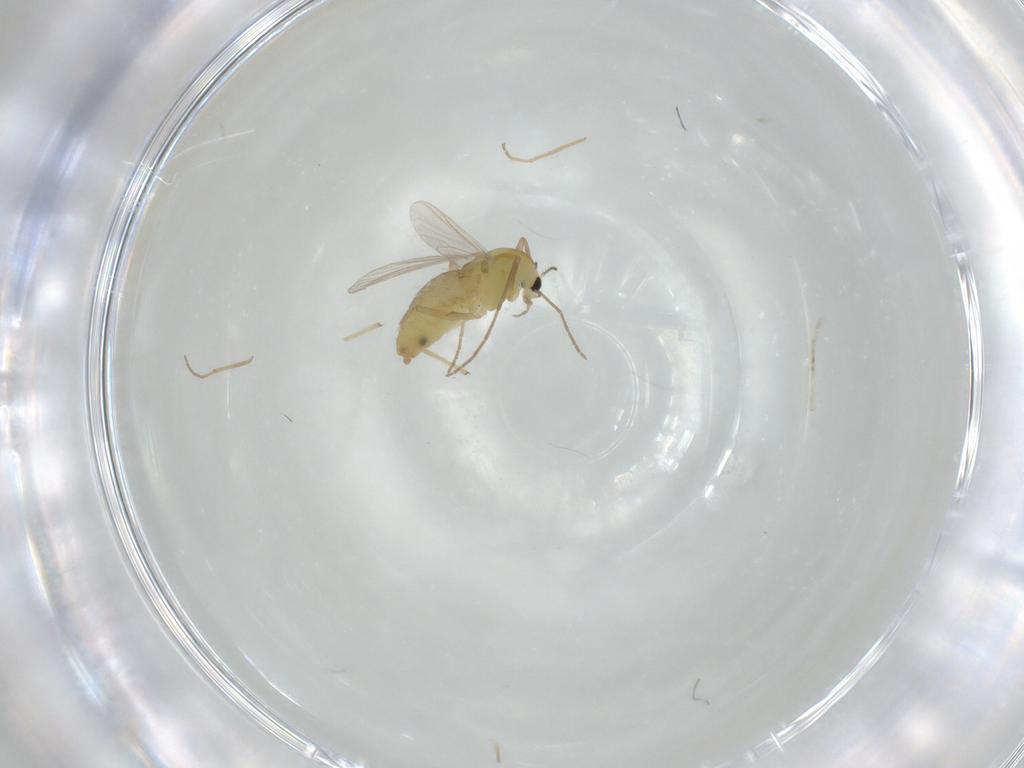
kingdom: Animalia
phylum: Arthropoda
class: Insecta
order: Diptera
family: Chironomidae
